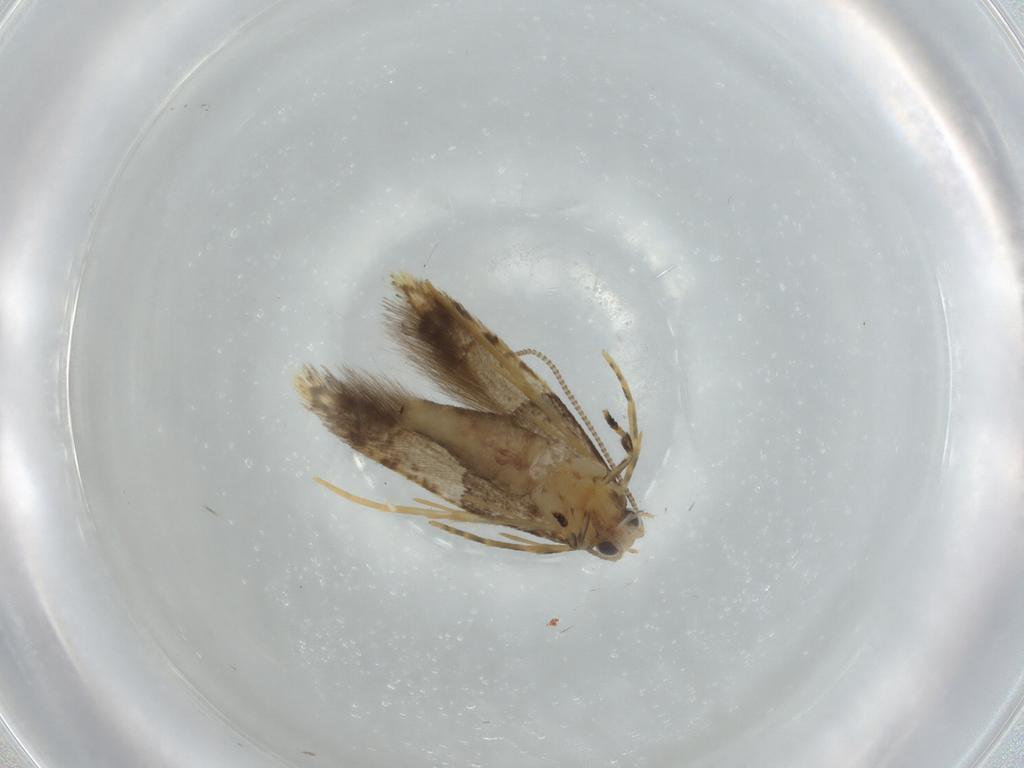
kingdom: Animalia
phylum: Arthropoda
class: Insecta
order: Lepidoptera
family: Tineidae
